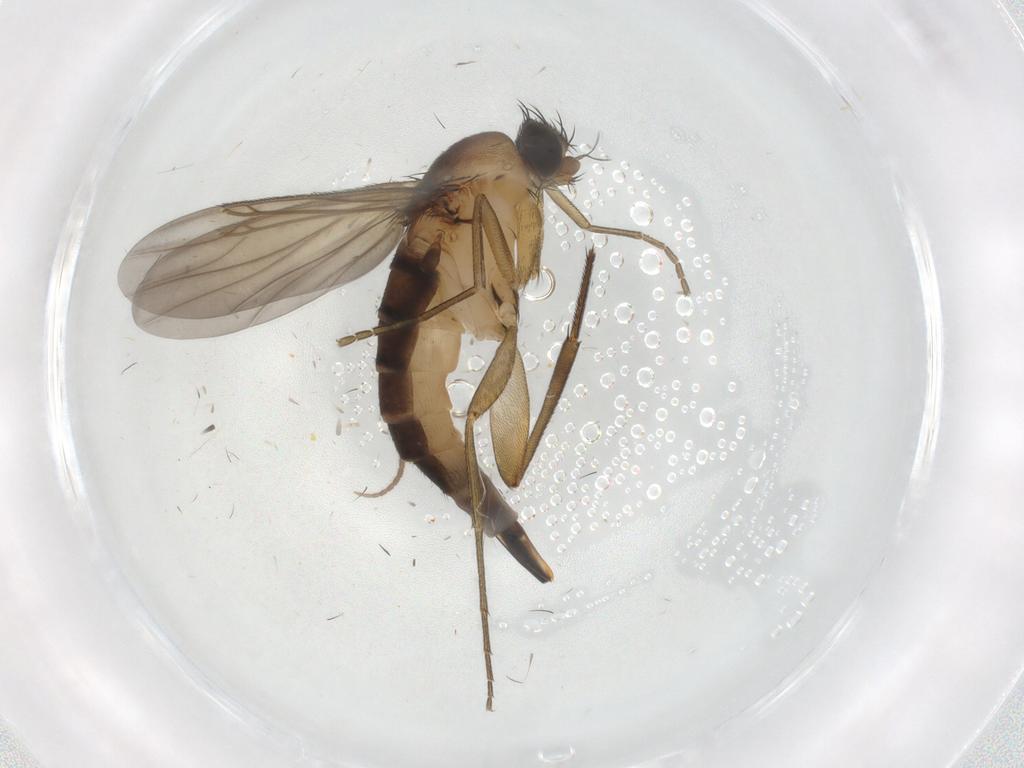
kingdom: Animalia
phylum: Arthropoda
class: Insecta
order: Diptera
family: Mycetophilidae
